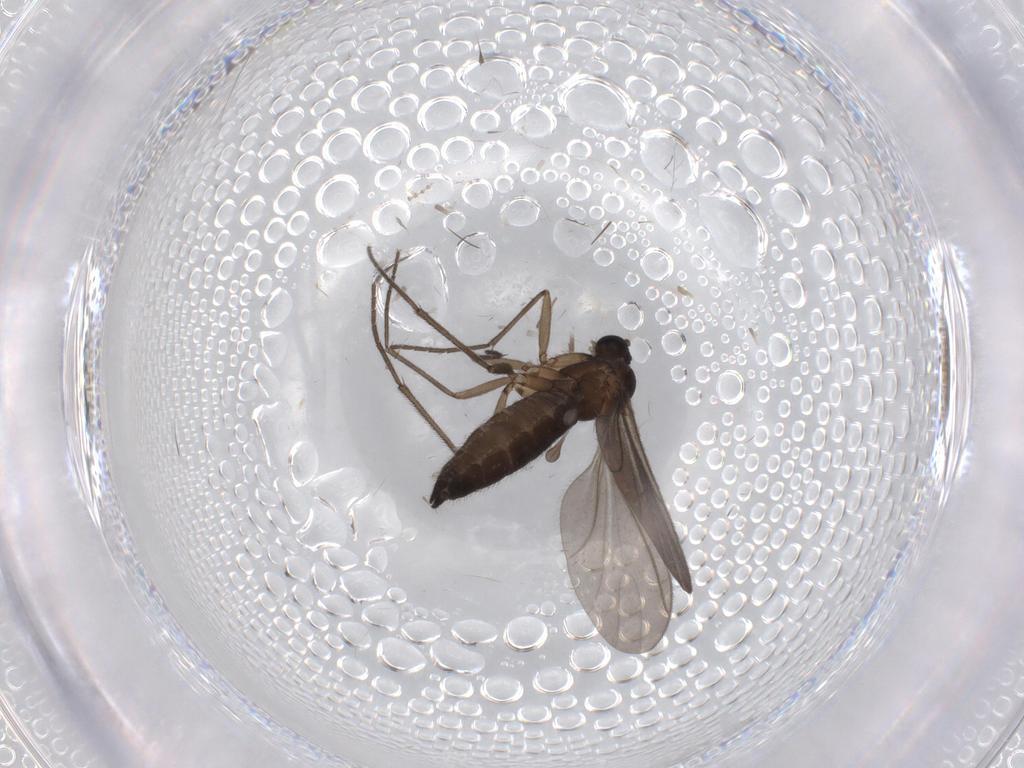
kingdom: Animalia
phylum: Arthropoda
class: Insecta
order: Diptera
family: Sciaridae
